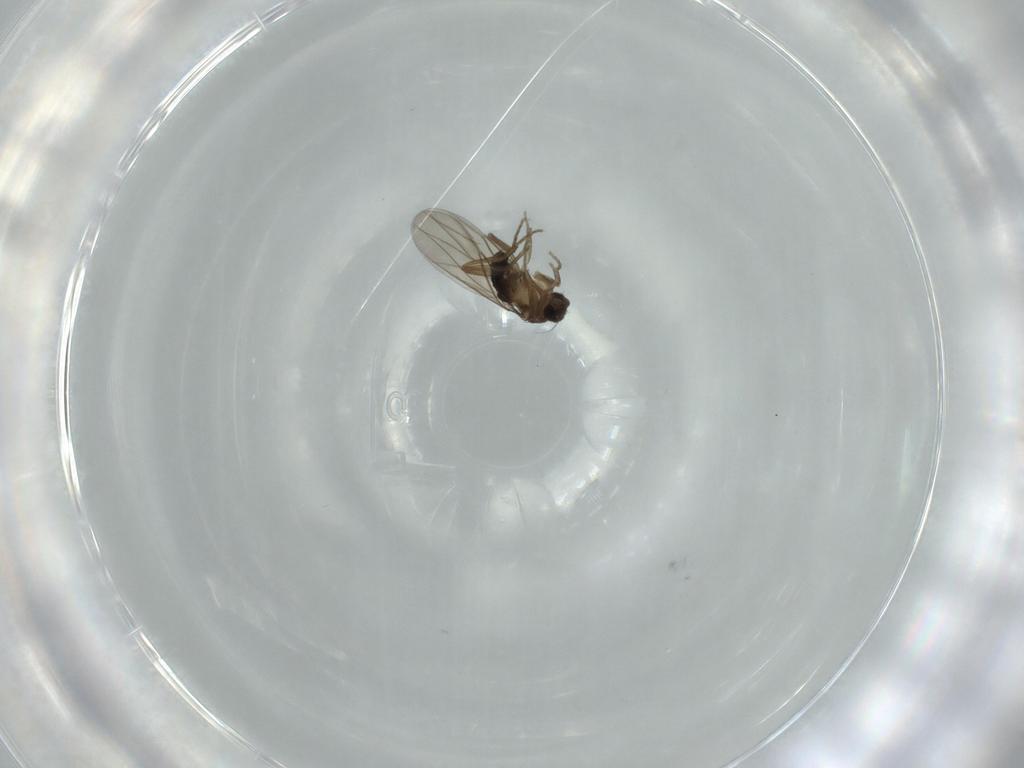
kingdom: Animalia
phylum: Arthropoda
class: Insecta
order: Diptera
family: Phoridae
